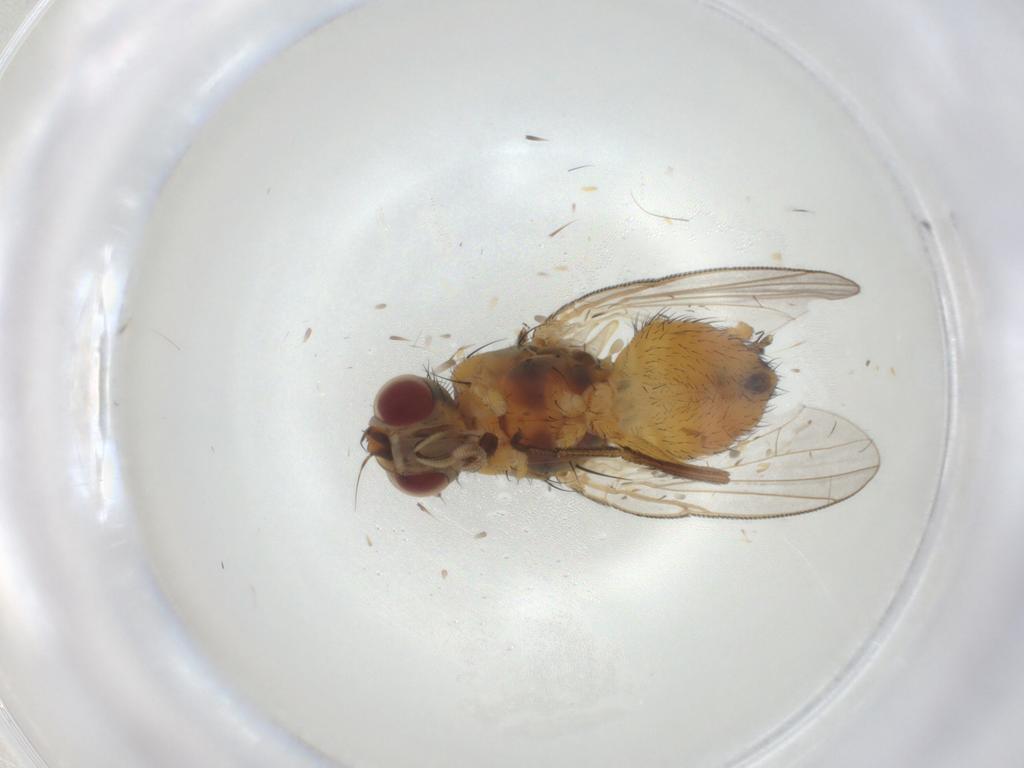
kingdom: Animalia
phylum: Arthropoda
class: Insecta
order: Diptera
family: Muscidae
